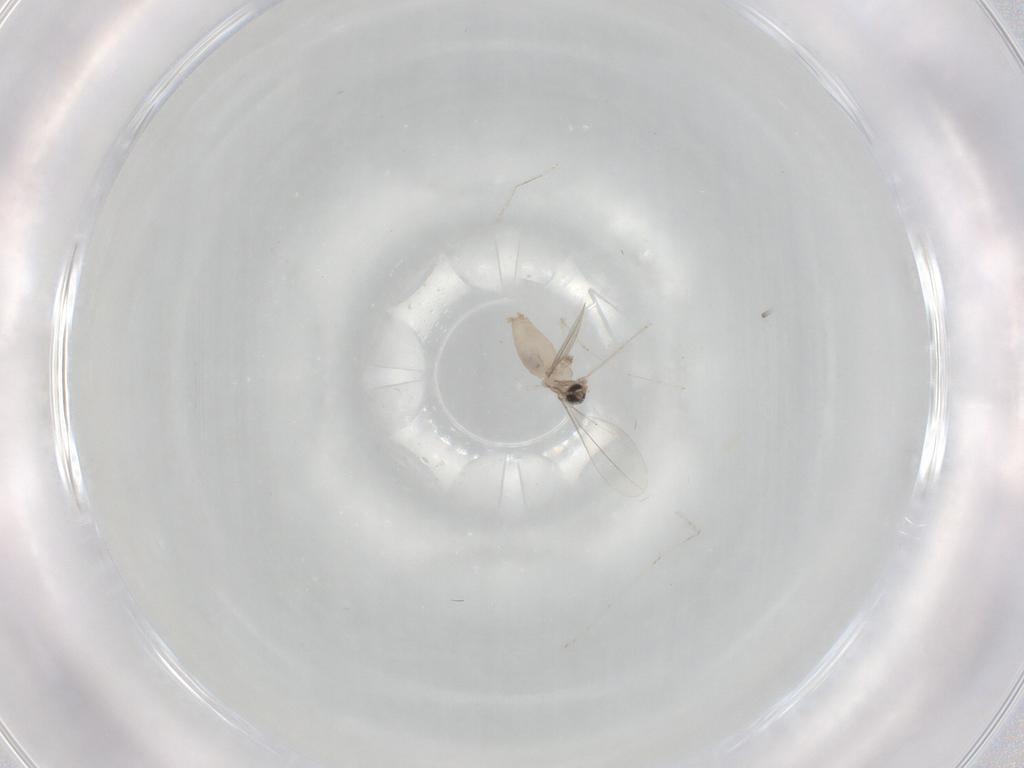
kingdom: Animalia
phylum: Arthropoda
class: Insecta
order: Diptera
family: Cecidomyiidae
